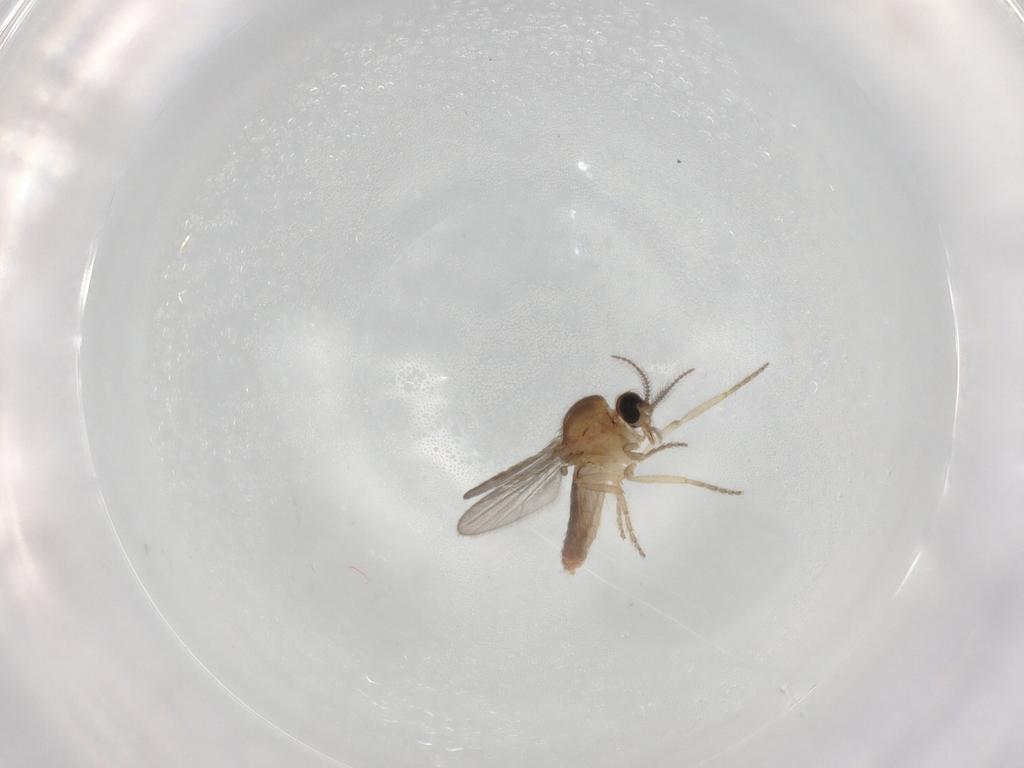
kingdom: Animalia
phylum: Arthropoda
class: Insecta
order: Diptera
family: Ceratopogonidae
